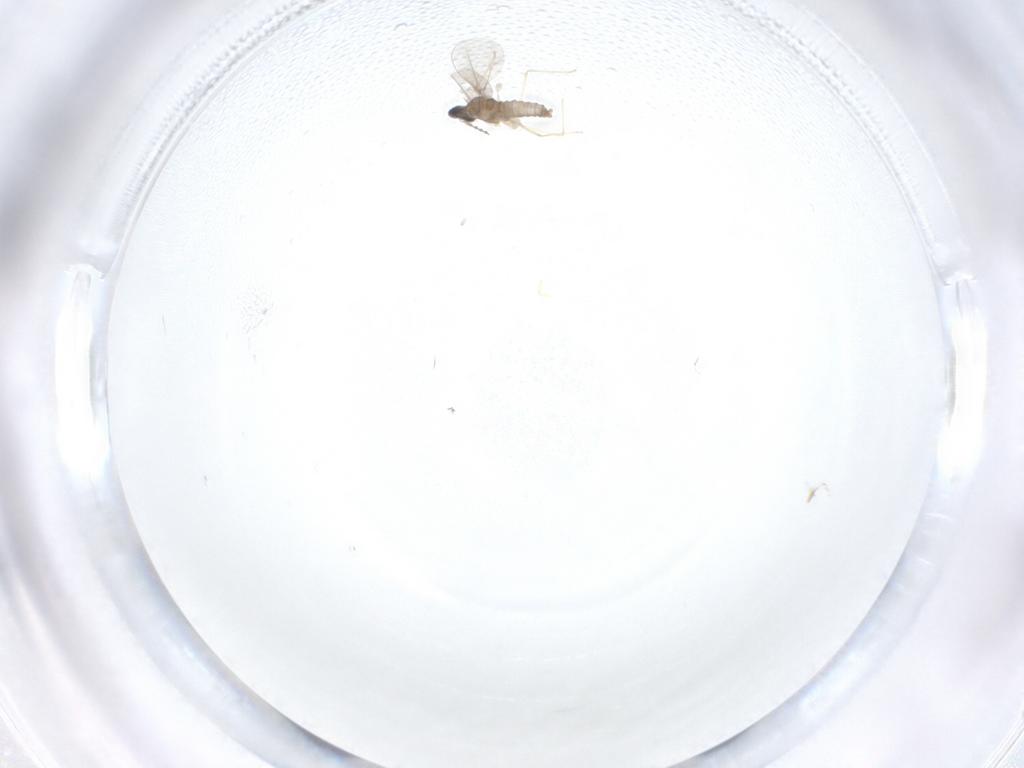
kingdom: Animalia
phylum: Arthropoda
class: Insecta
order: Diptera
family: Cecidomyiidae
